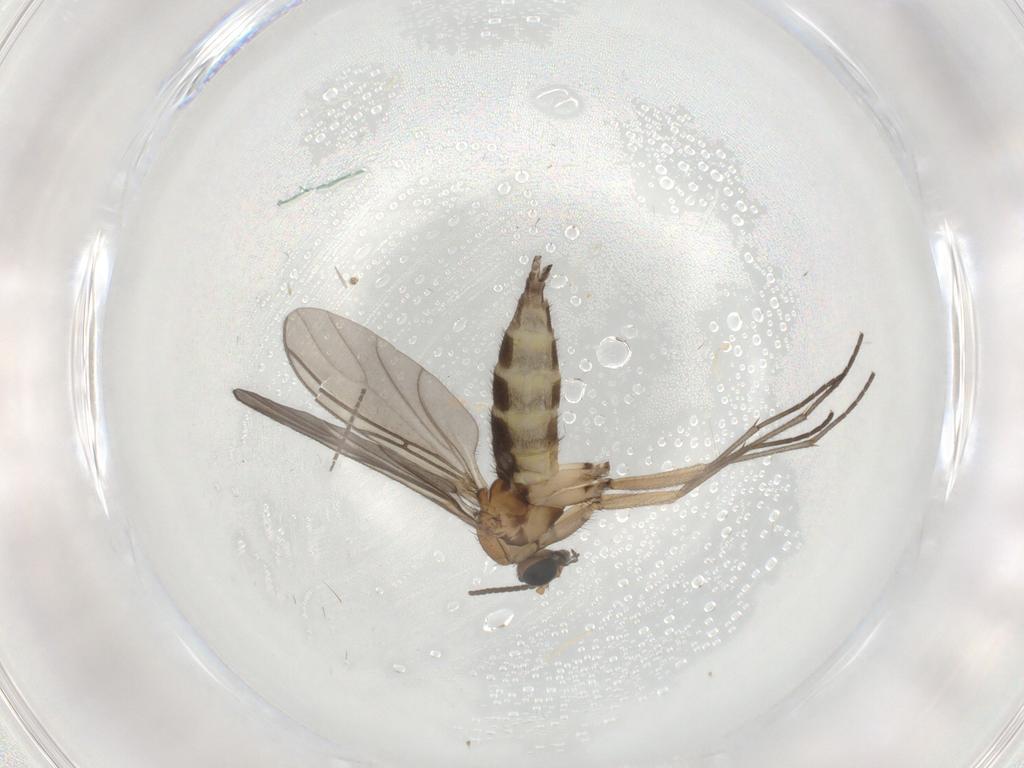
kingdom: Animalia
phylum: Arthropoda
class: Insecta
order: Diptera
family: Sciaridae
